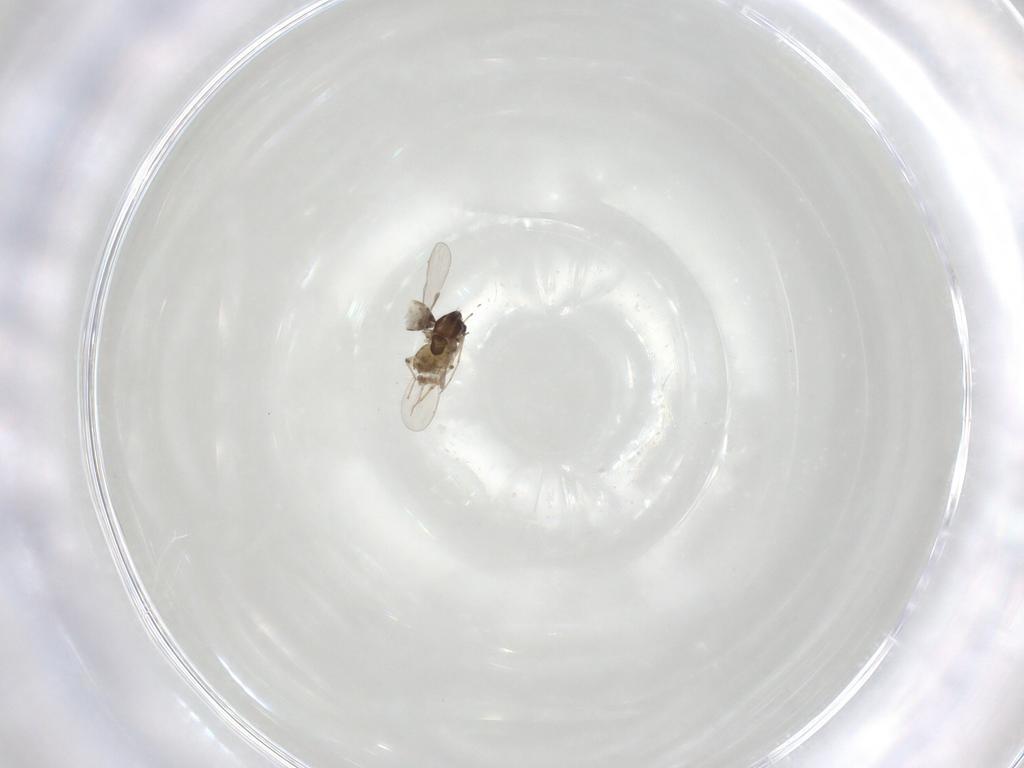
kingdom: Animalia
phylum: Arthropoda
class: Insecta
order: Diptera
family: Chironomidae
